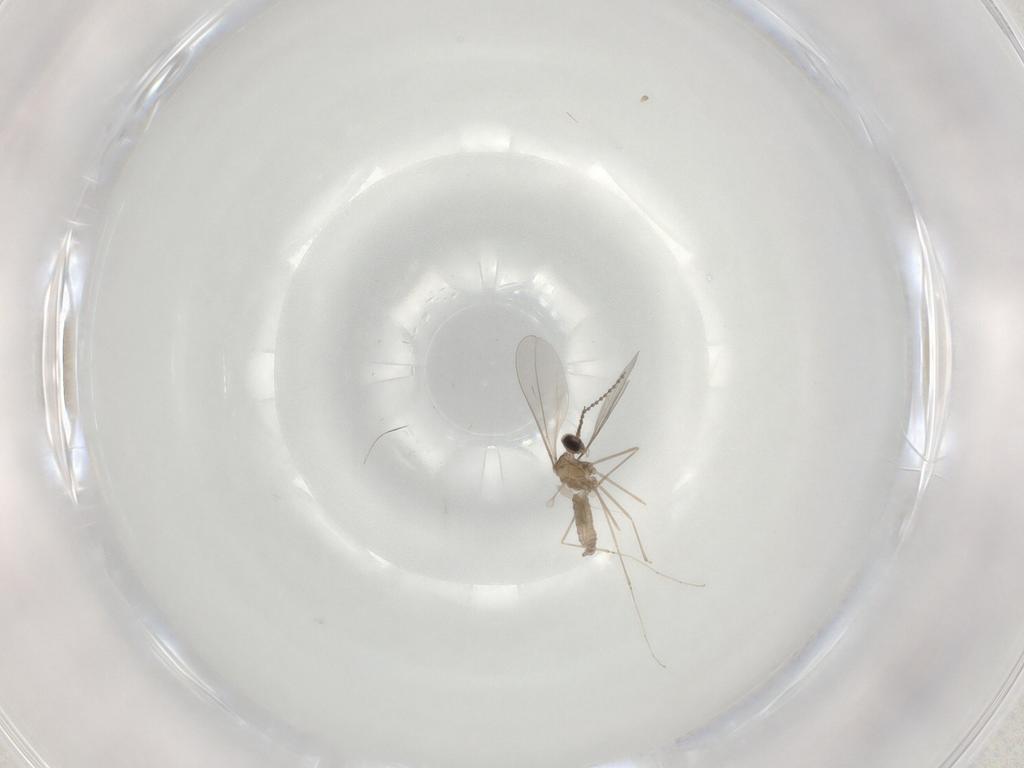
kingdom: Animalia
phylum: Arthropoda
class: Insecta
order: Diptera
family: Cecidomyiidae
